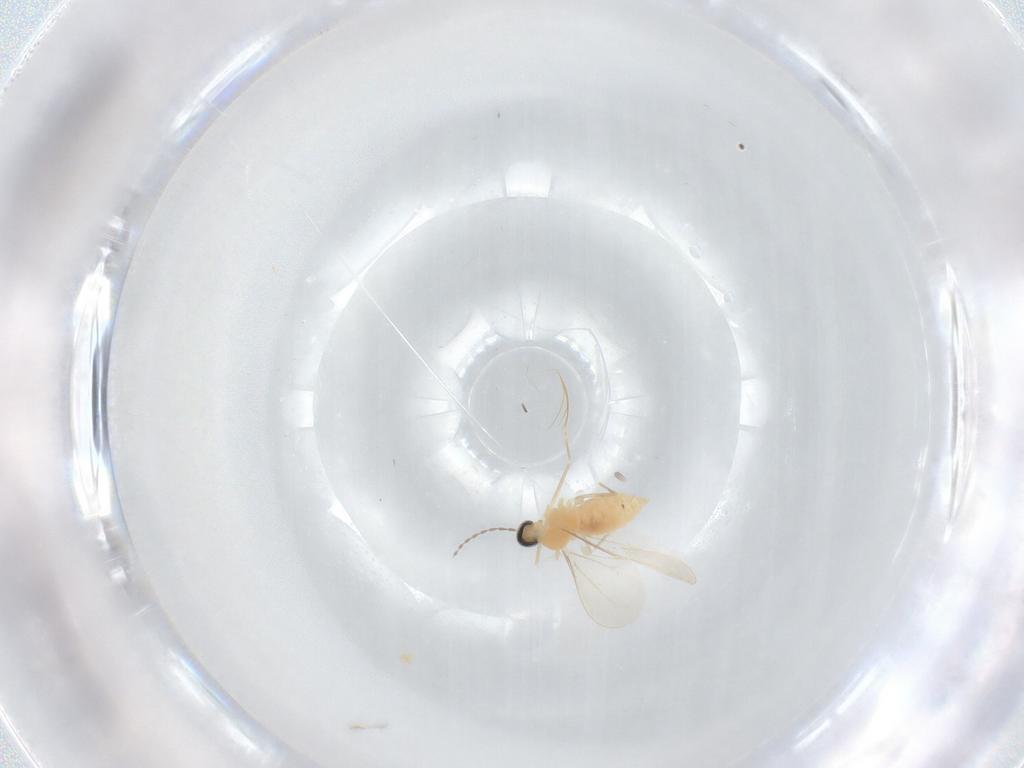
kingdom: Animalia
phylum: Arthropoda
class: Insecta
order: Diptera
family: Cecidomyiidae
